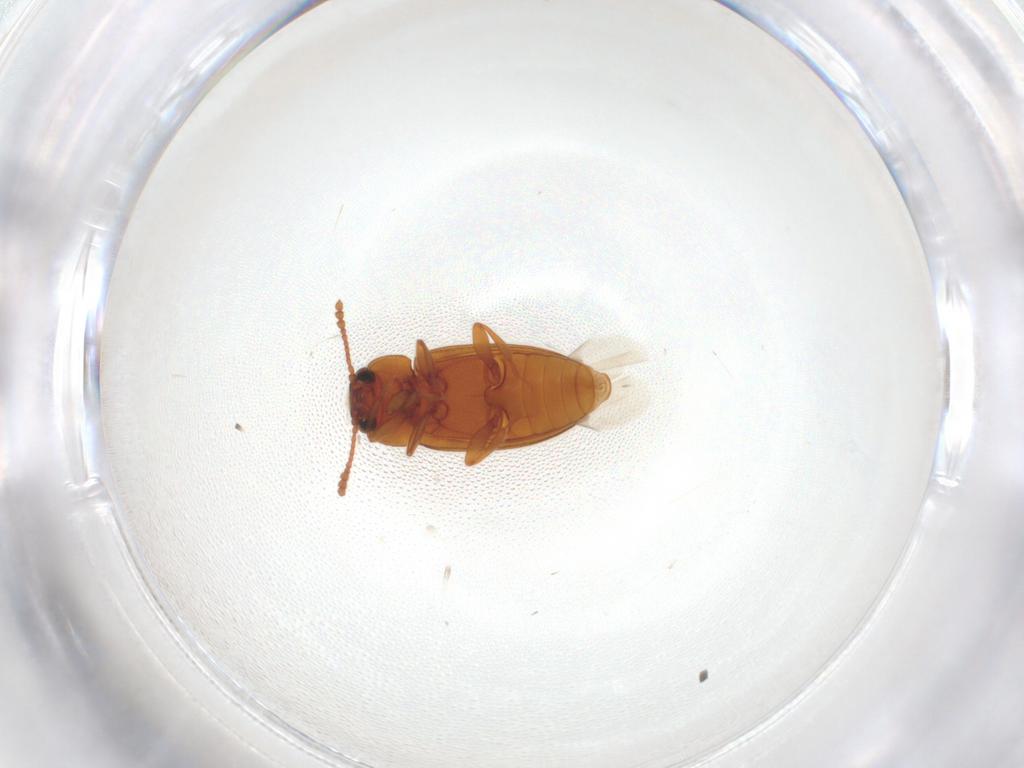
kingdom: Animalia
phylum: Arthropoda
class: Insecta
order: Coleoptera
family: Erotylidae
